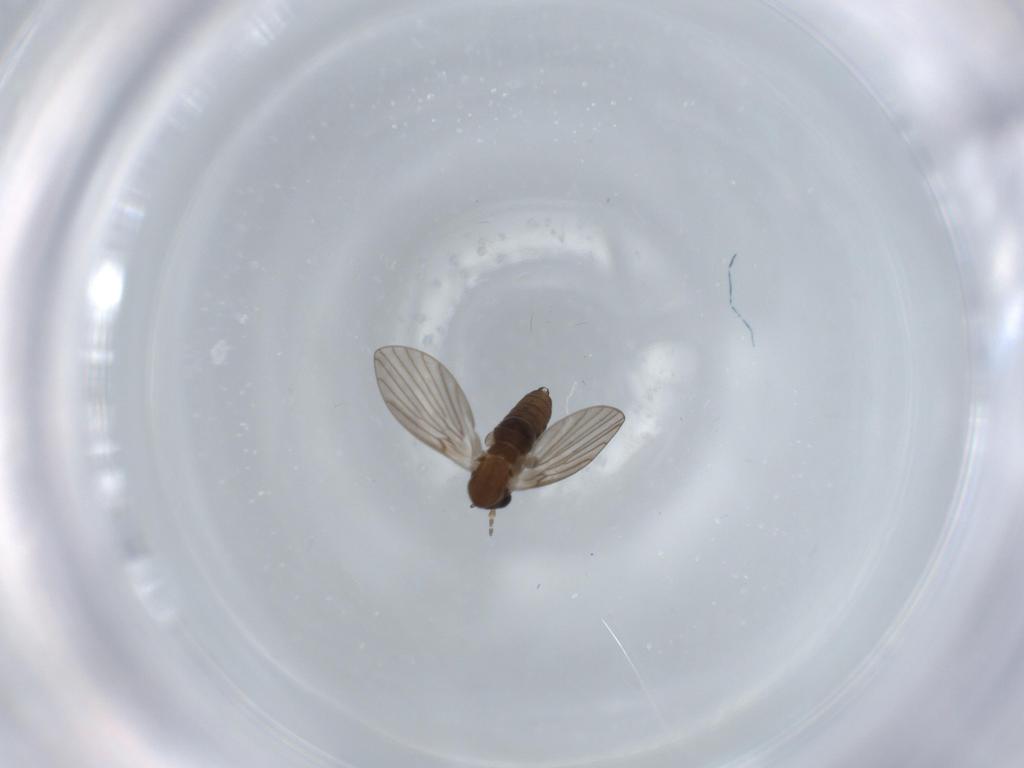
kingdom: Animalia
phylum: Arthropoda
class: Insecta
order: Diptera
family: Psychodidae
